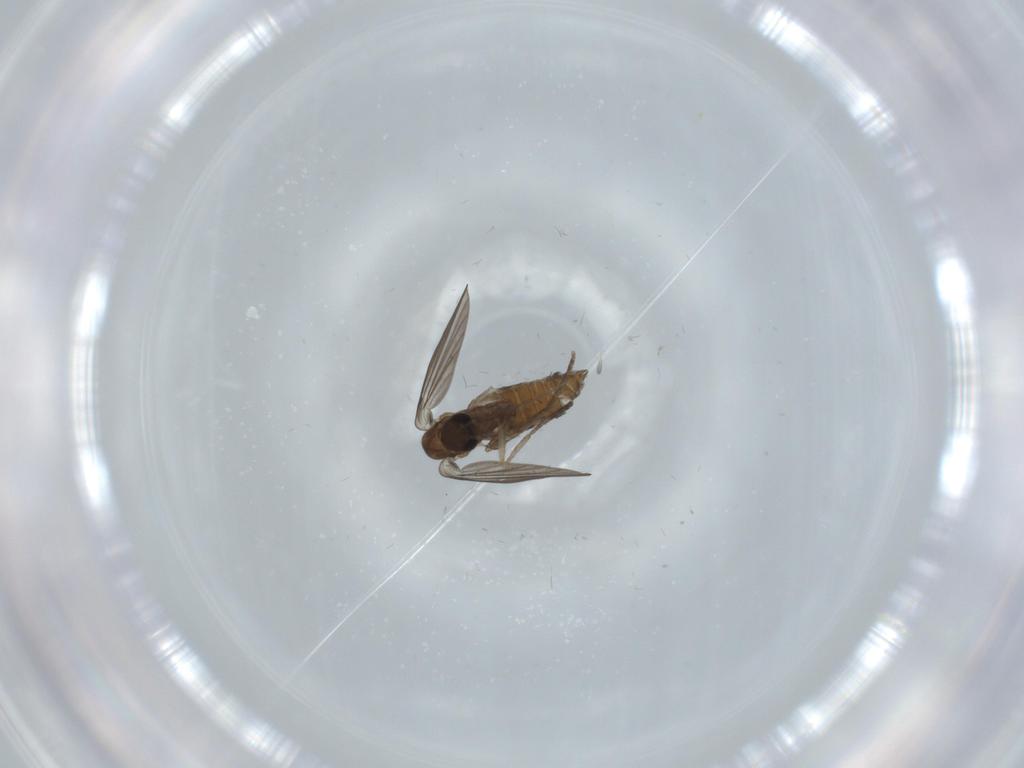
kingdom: Animalia
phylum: Arthropoda
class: Insecta
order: Diptera
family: Psychodidae
